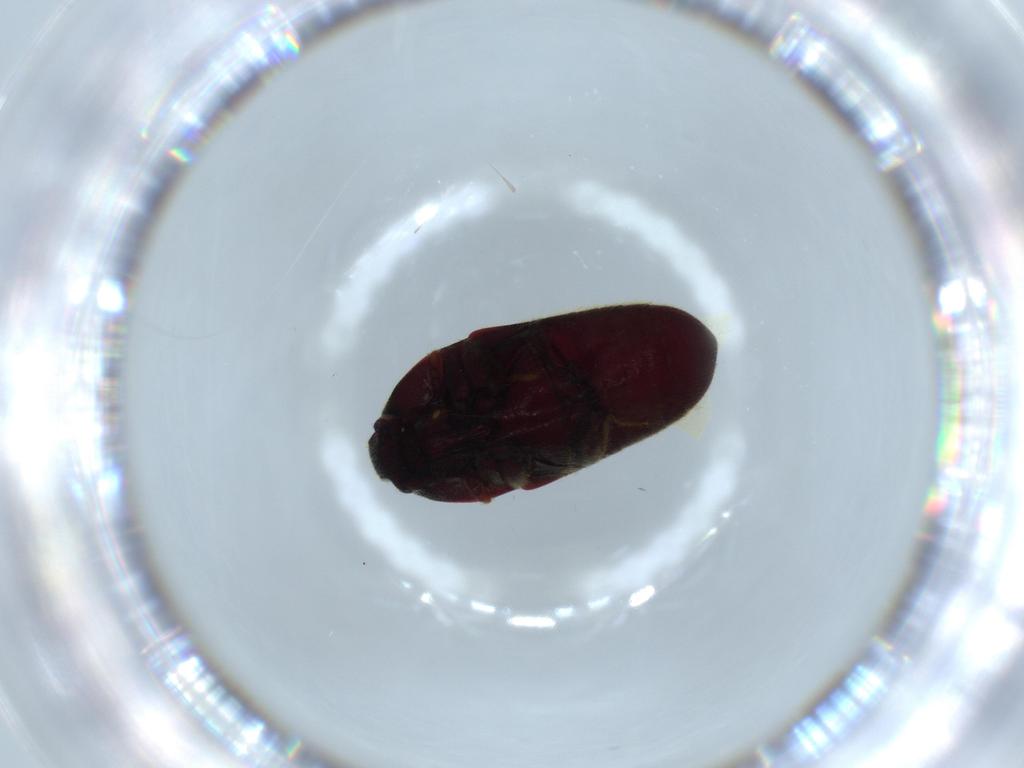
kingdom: Animalia
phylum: Arthropoda
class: Insecta
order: Coleoptera
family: Chrysomelidae
